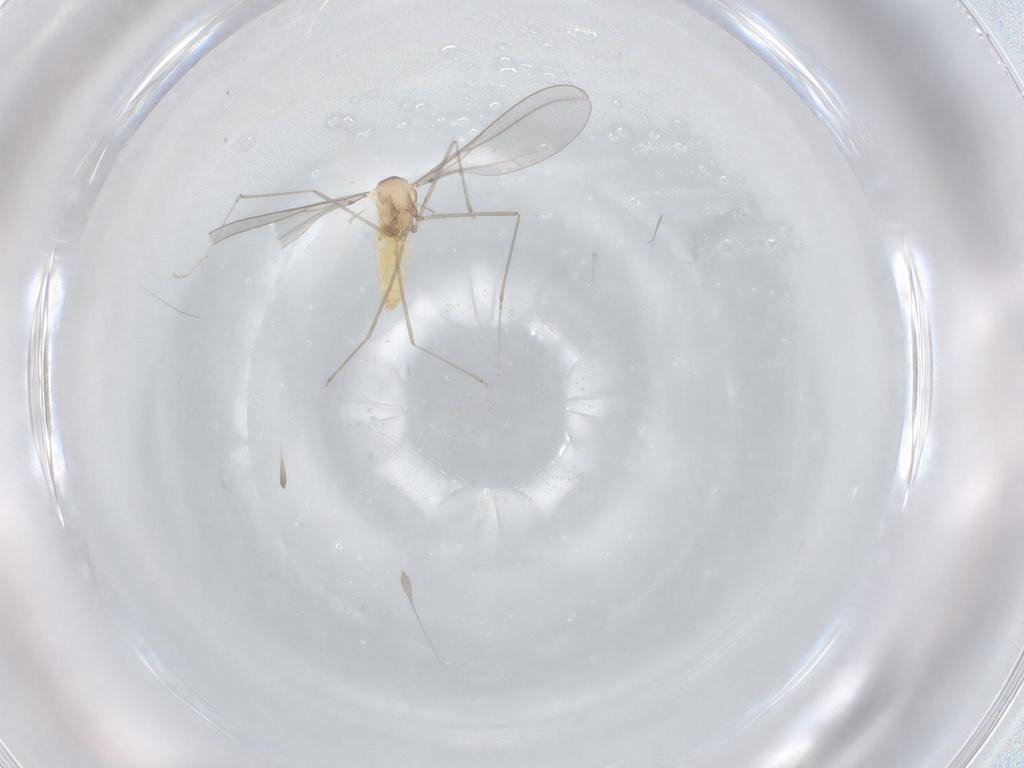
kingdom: Animalia
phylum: Arthropoda
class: Insecta
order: Diptera
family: Cecidomyiidae
